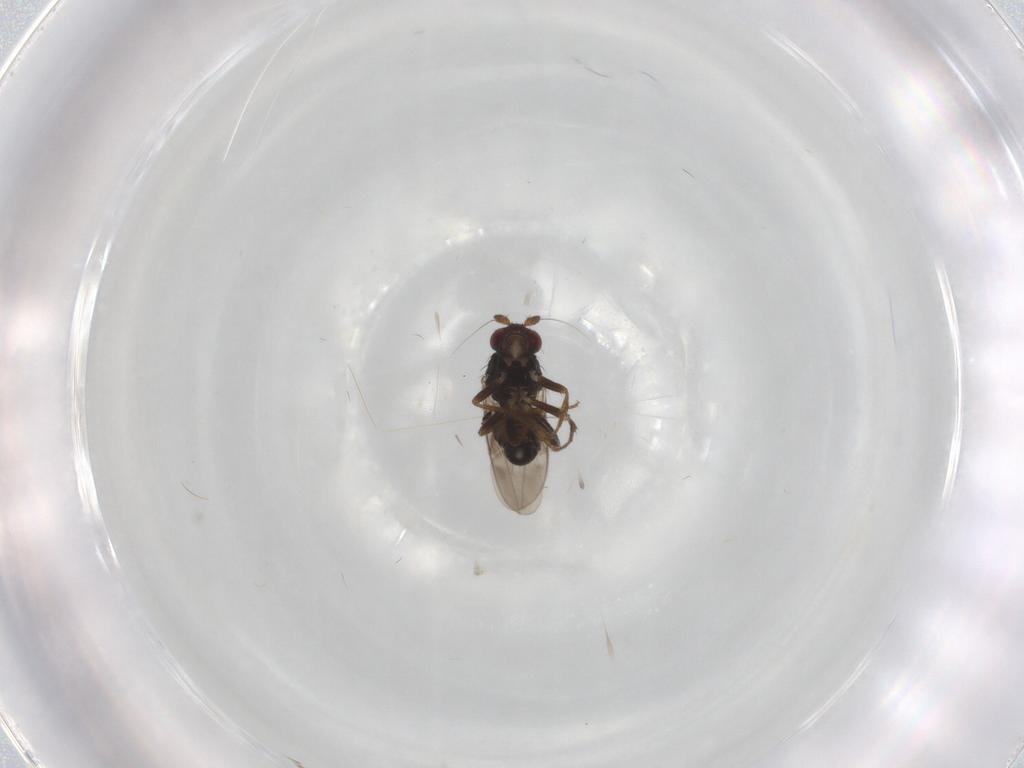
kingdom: Animalia
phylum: Arthropoda
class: Insecta
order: Diptera
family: Sphaeroceridae
